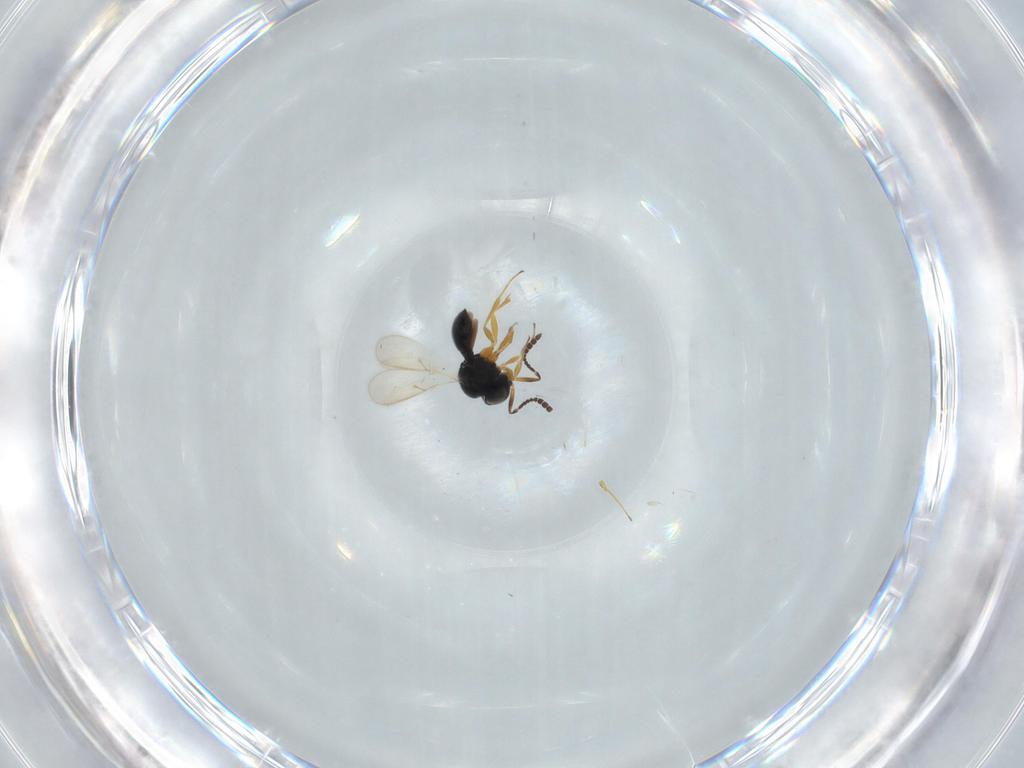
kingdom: Animalia
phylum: Arthropoda
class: Insecta
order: Hymenoptera
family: Scelionidae
